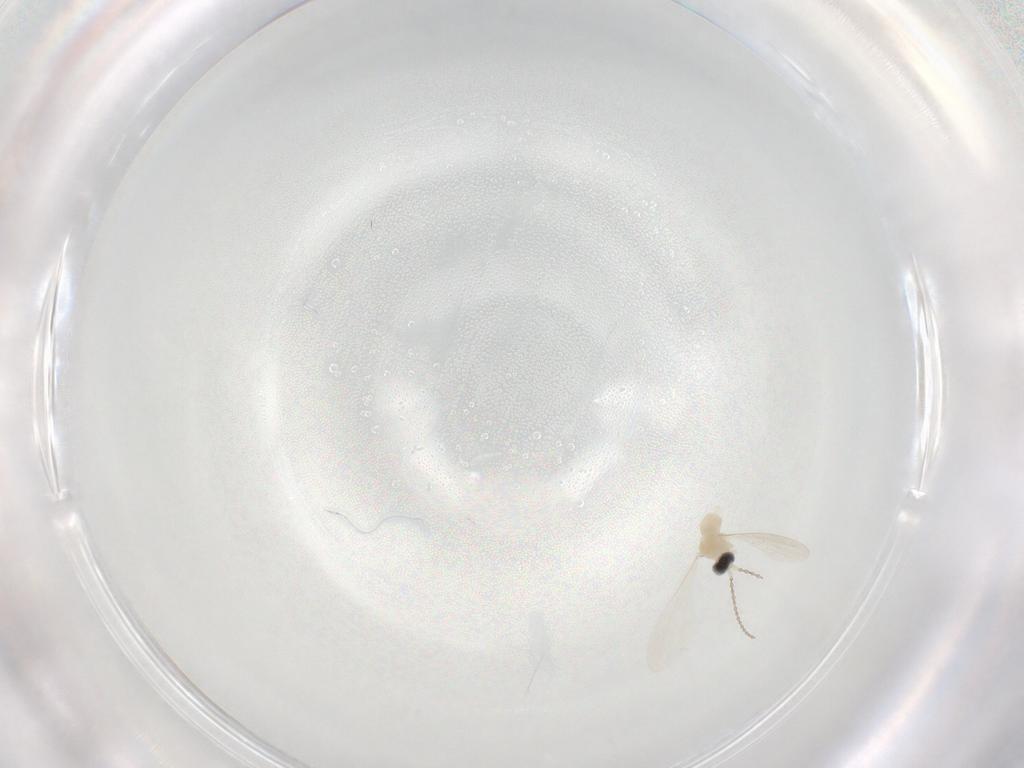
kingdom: Animalia
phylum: Arthropoda
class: Insecta
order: Diptera
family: Cecidomyiidae
